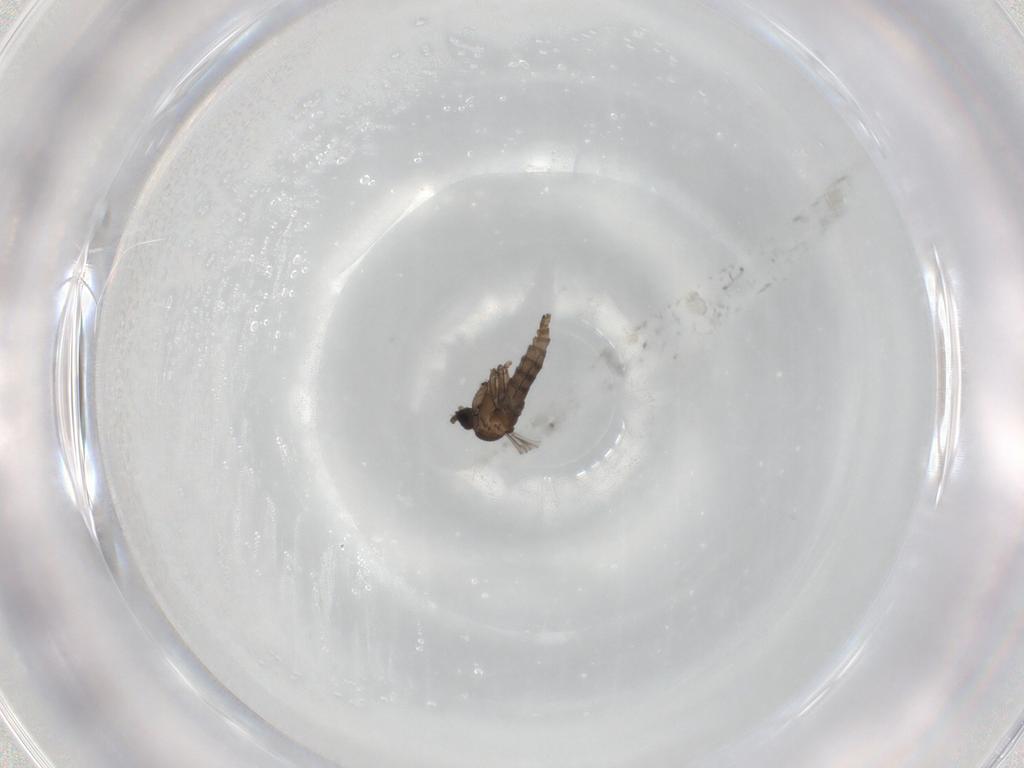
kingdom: Animalia
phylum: Arthropoda
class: Insecta
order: Diptera
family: Sciaridae
